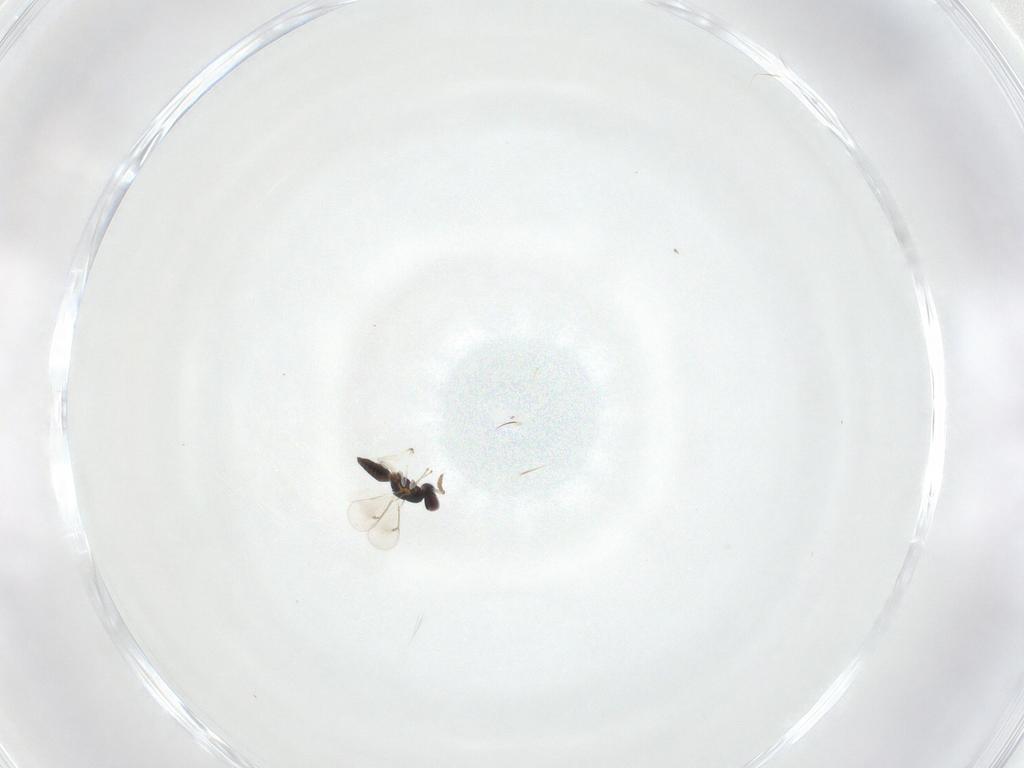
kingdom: Animalia
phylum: Arthropoda
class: Insecta
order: Hymenoptera
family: Eulophidae
